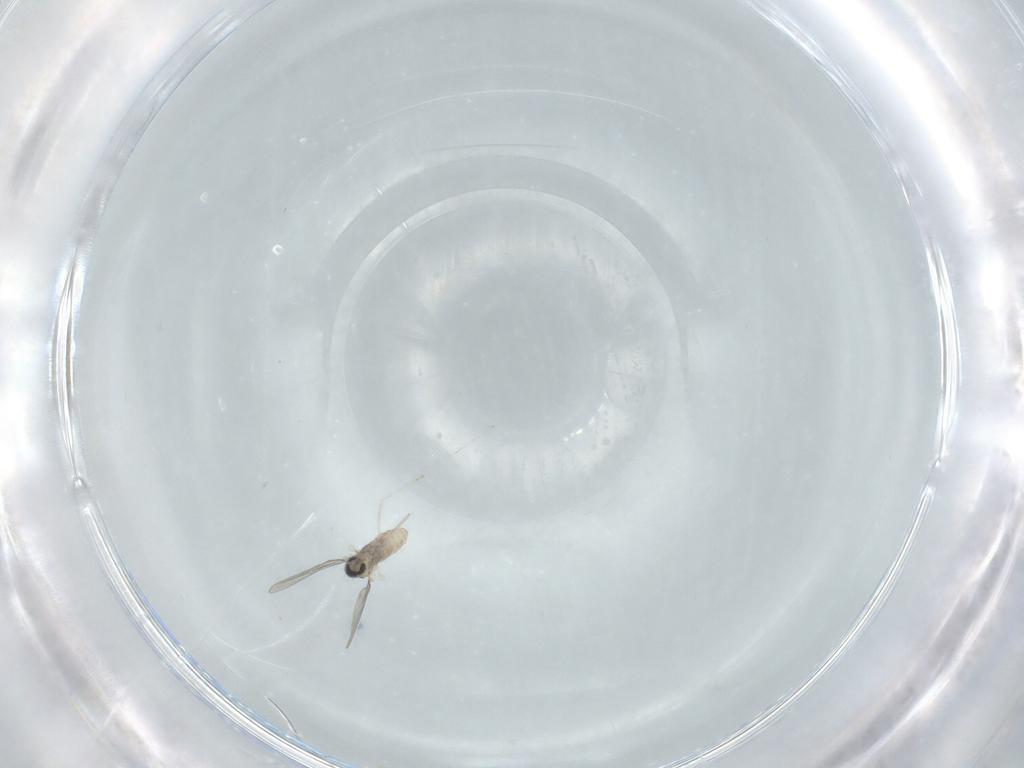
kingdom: Animalia
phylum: Arthropoda
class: Insecta
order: Diptera
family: Cecidomyiidae
